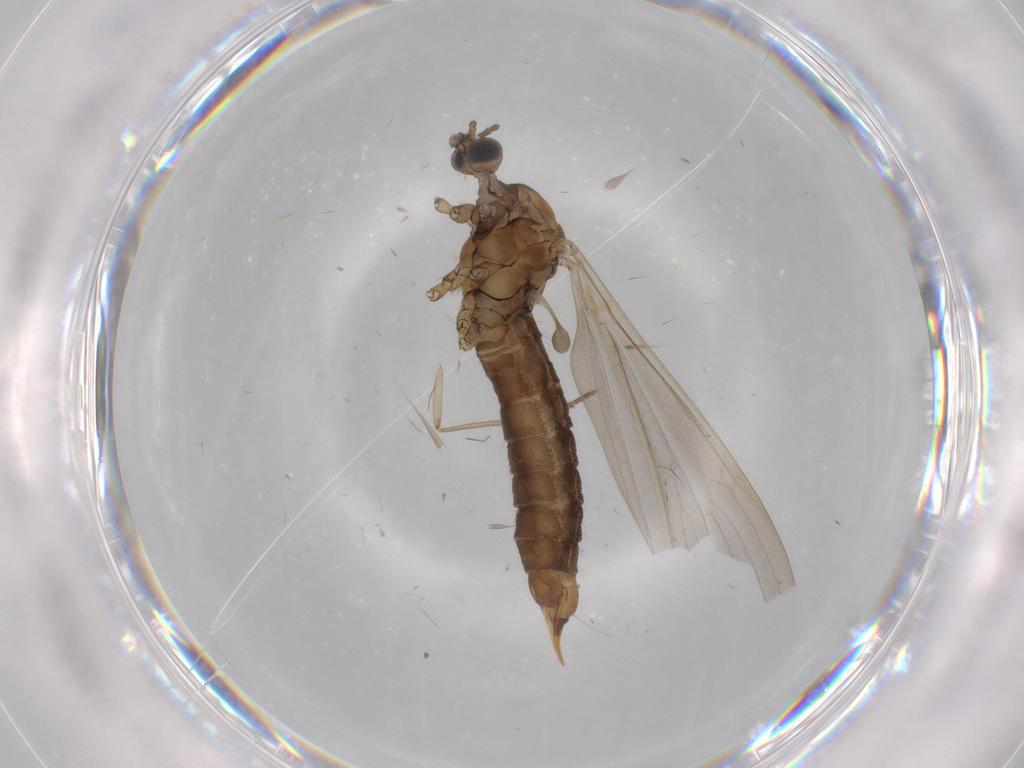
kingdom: Animalia
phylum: Arthropoda
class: Insecta
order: Diptera
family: Limoniidae
